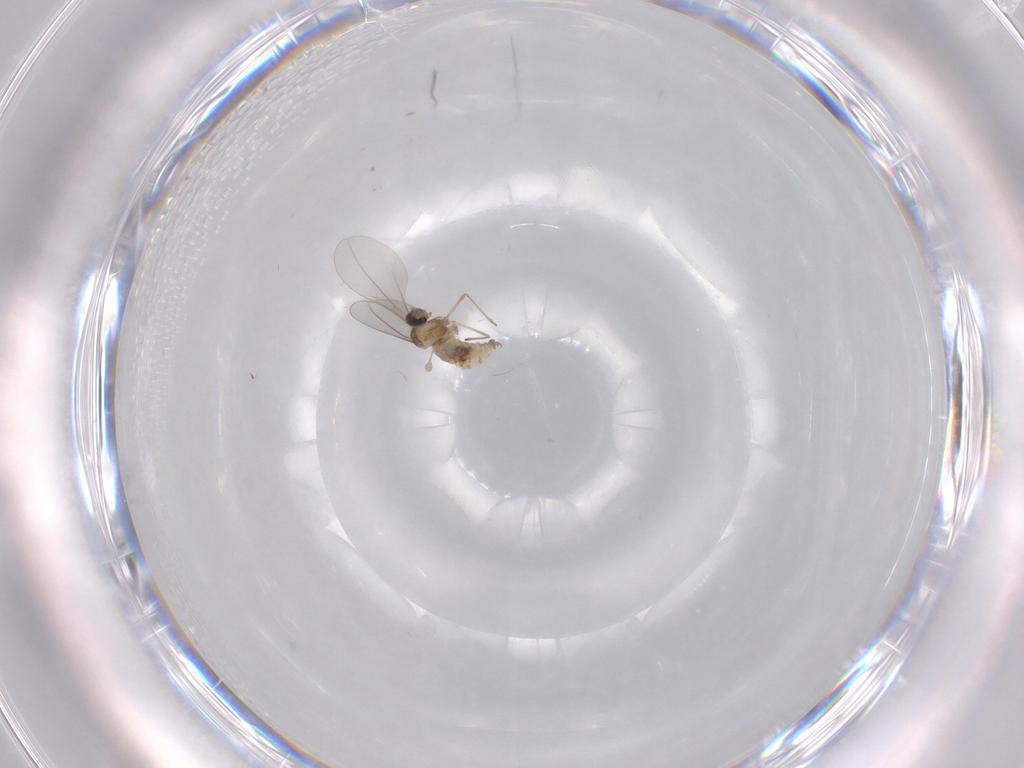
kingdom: Animalia
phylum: Arthropoda
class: Insecta
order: Diptera
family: Cecidomyiidae
